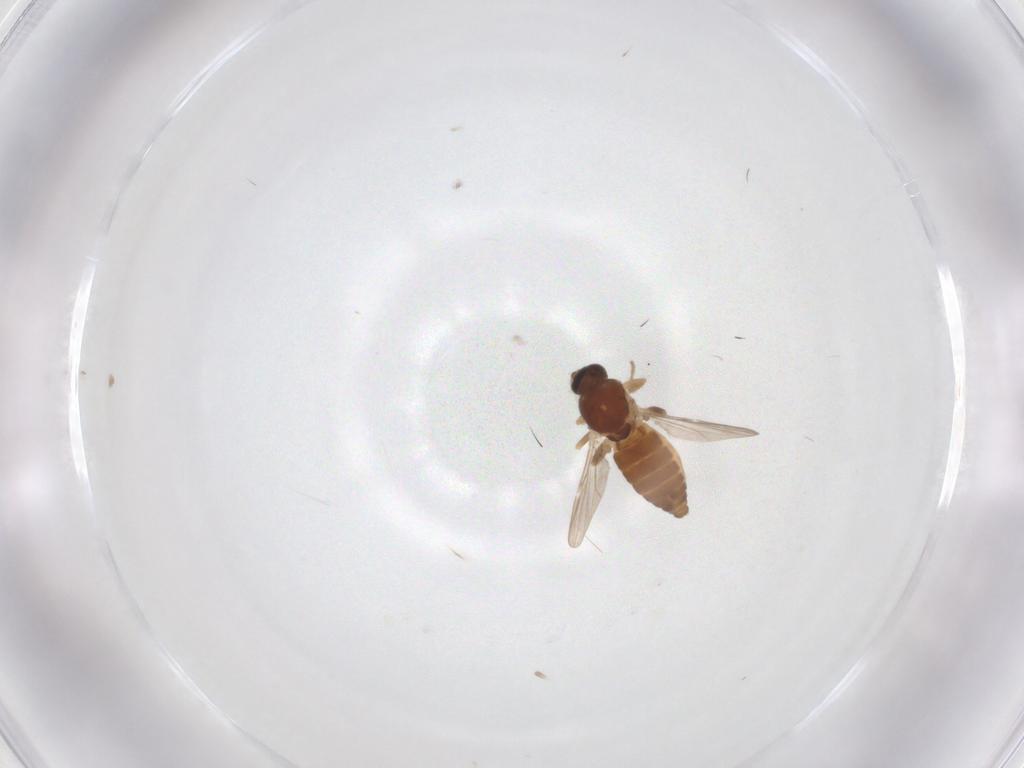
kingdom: Animalia
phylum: Arthropoda
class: Insecta
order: Diptera
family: Ceratopogonidae
